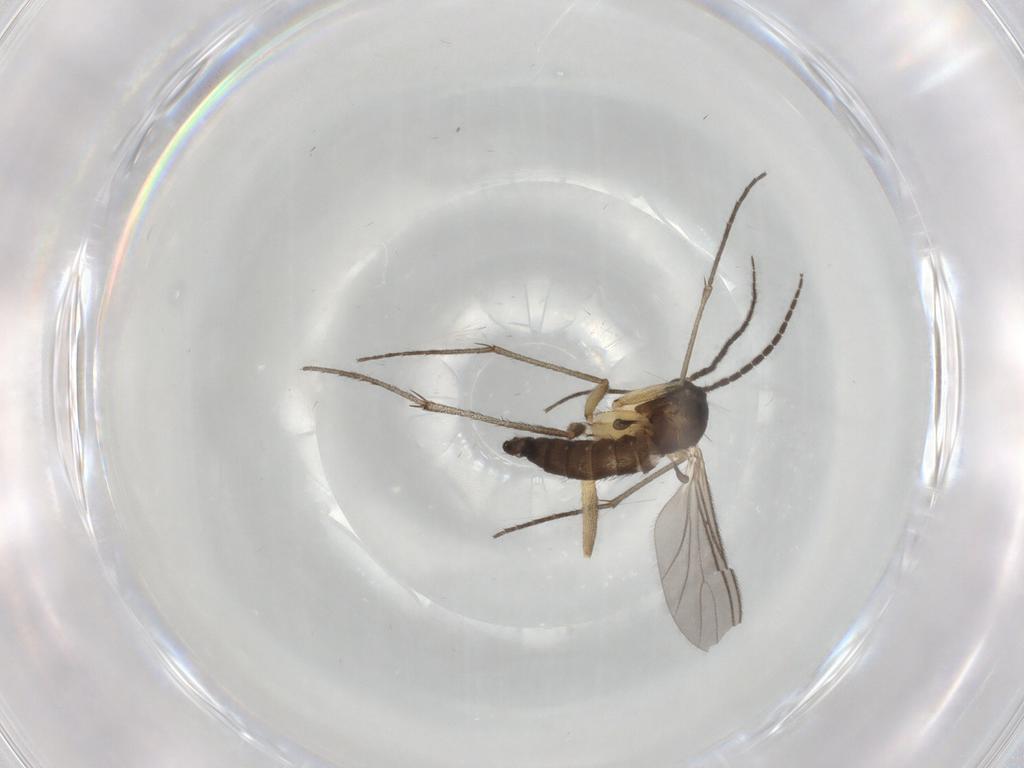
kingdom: Animalia
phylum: Arthropoda
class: Insecta
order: Diptera
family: Sciaridae
